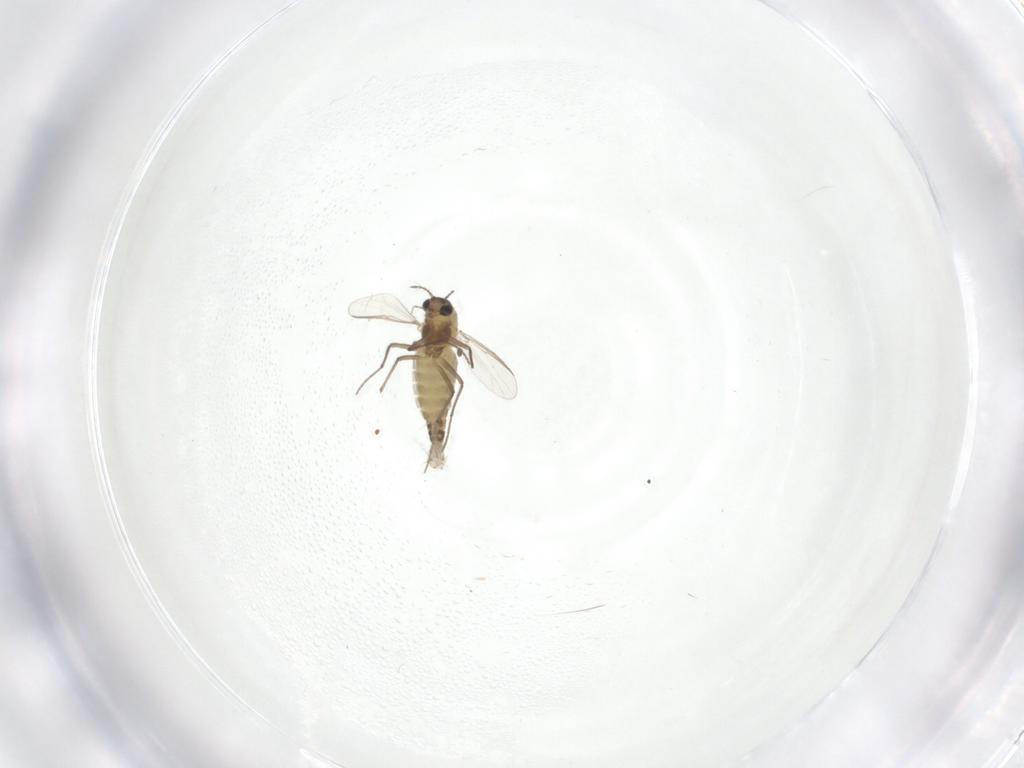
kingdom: Animalia
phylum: Arthropoda
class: Insecta
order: Diptera
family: Chironomidae
